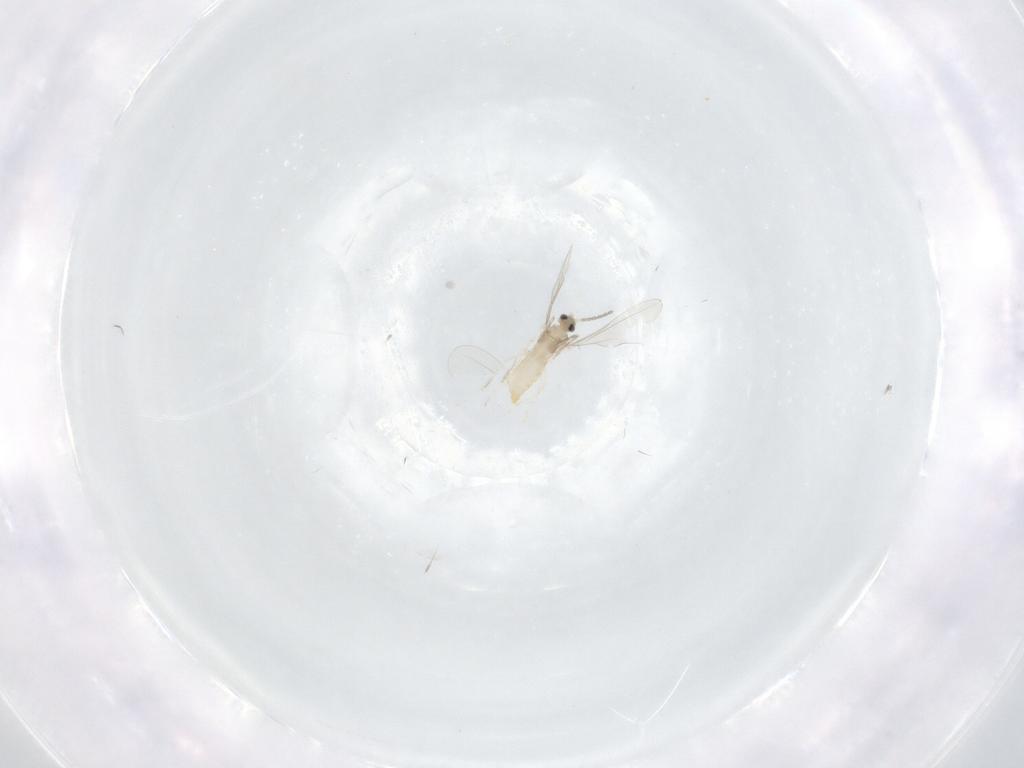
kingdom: Animalia
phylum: Arthropoda
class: Insecta
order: Diptera
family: Cecidomyiidae
